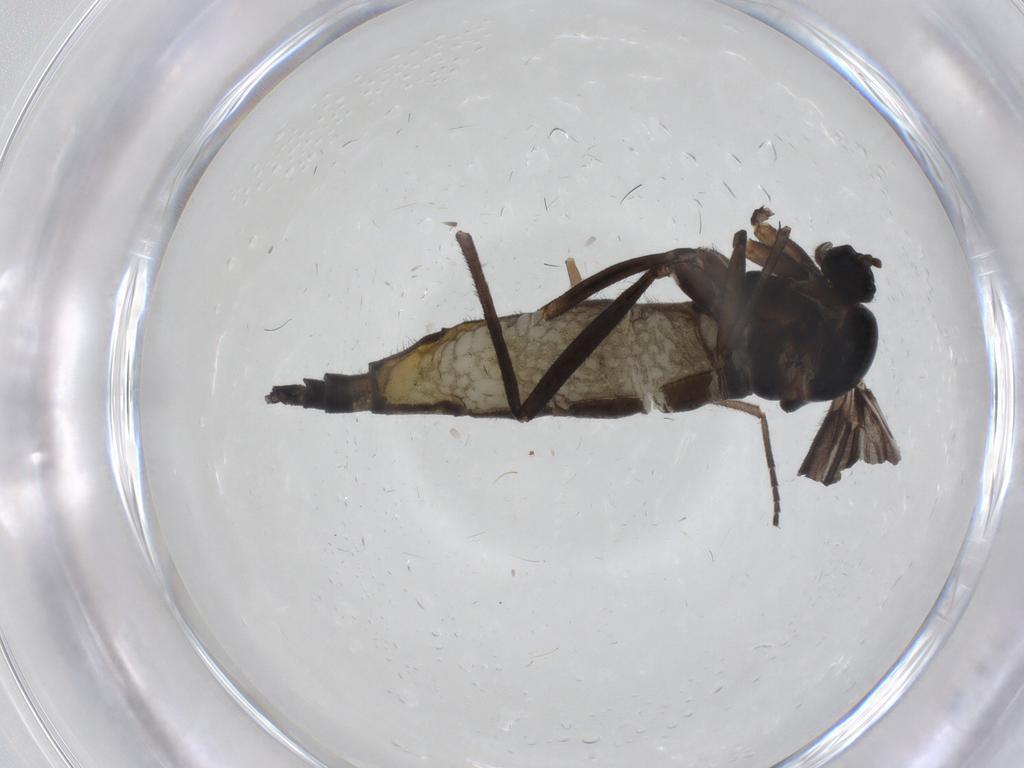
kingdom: Animalia
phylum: Arthropoda
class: Insecta
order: Diptera
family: Sciaridae
